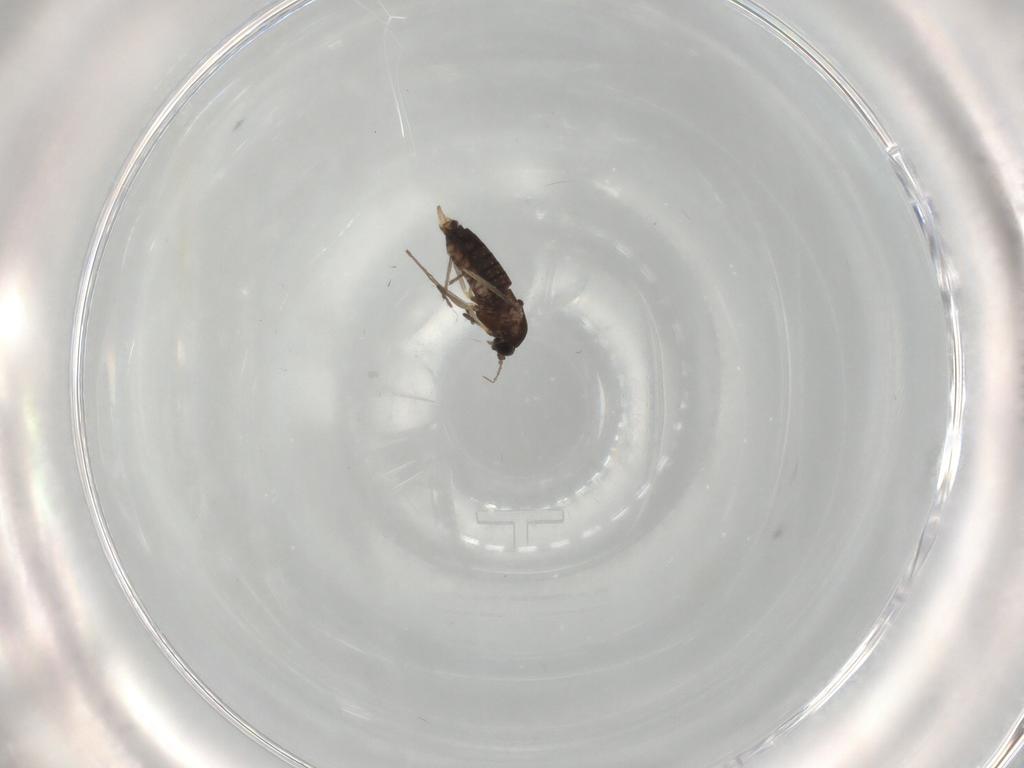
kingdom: Animalia
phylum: Arthropoda
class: Insecta
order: Diptera
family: Chironomidae
